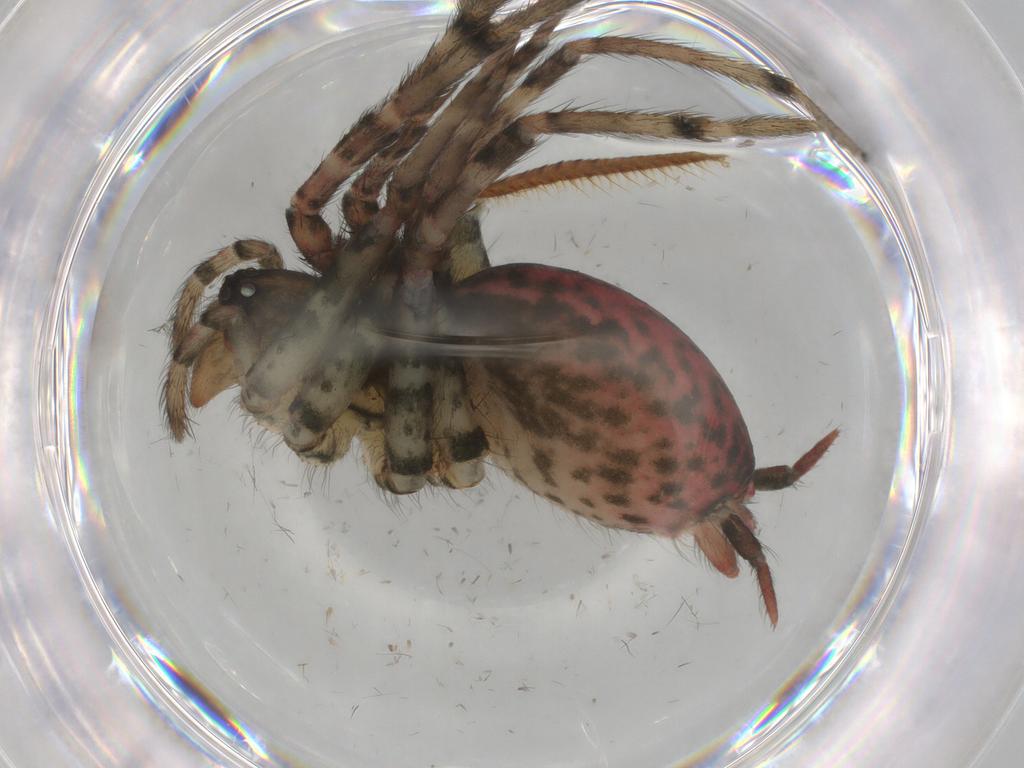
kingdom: Animalia
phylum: Arthropoda
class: Arachnida
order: Araneae
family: Agelenidae
